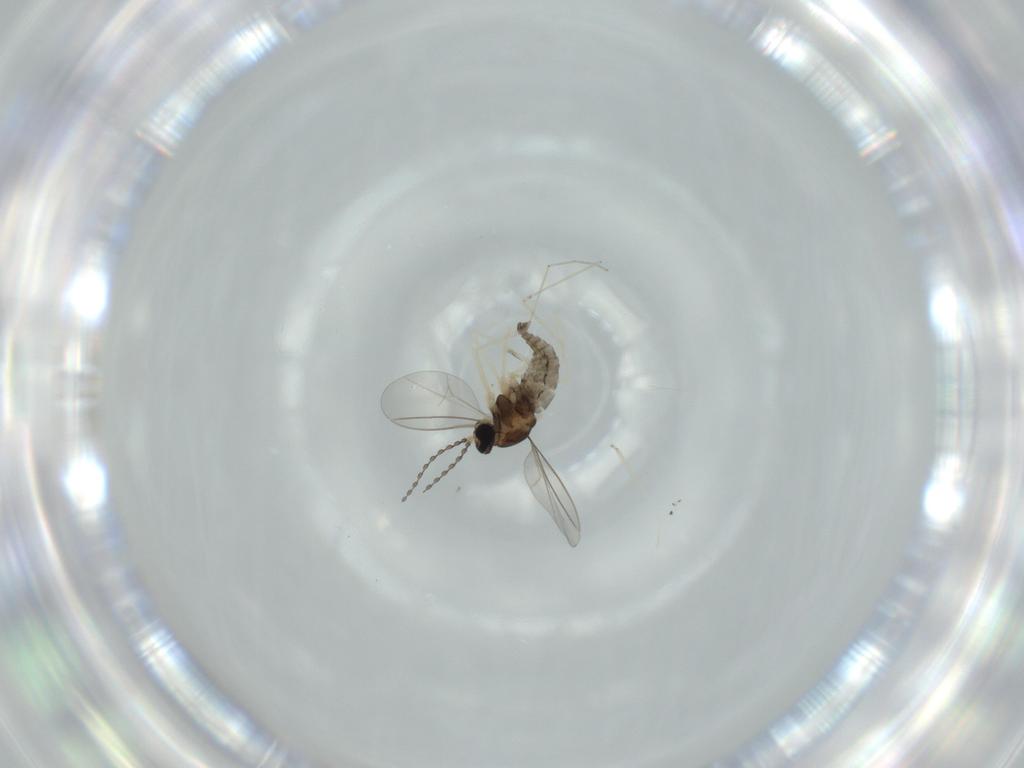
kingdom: Animalia
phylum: Arthropoda
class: Insecta
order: Diptera
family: Cecidomyiidae
